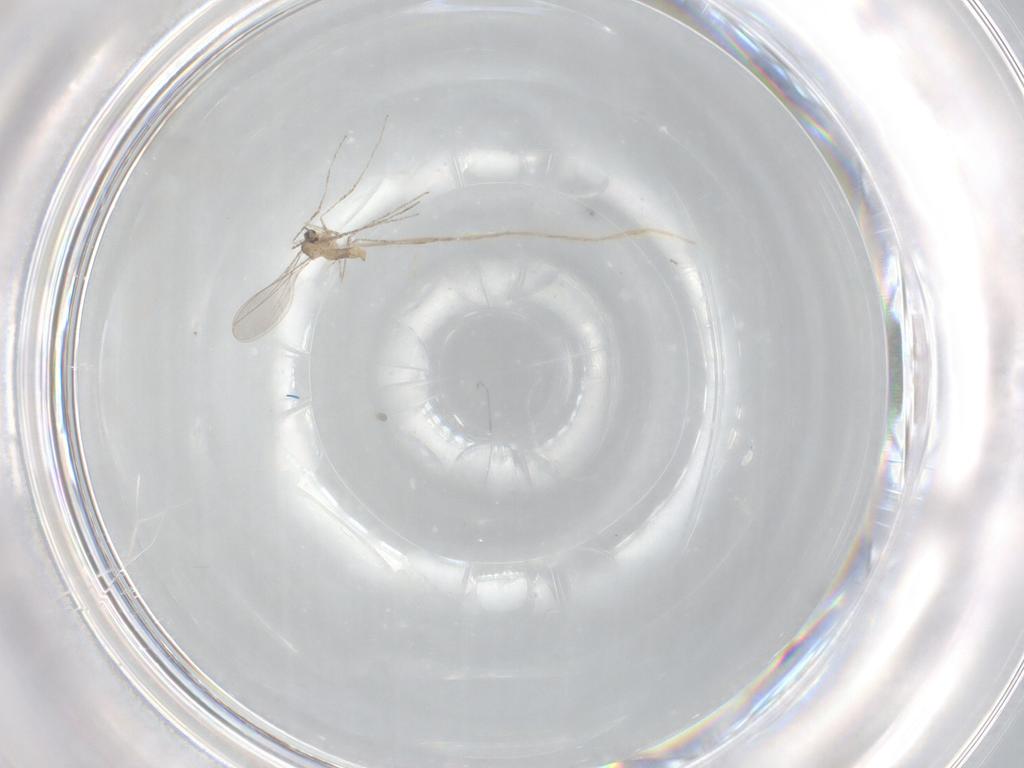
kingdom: Animalia
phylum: Arthropoda
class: Insecta
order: Diptera
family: Cecidomyiidae
